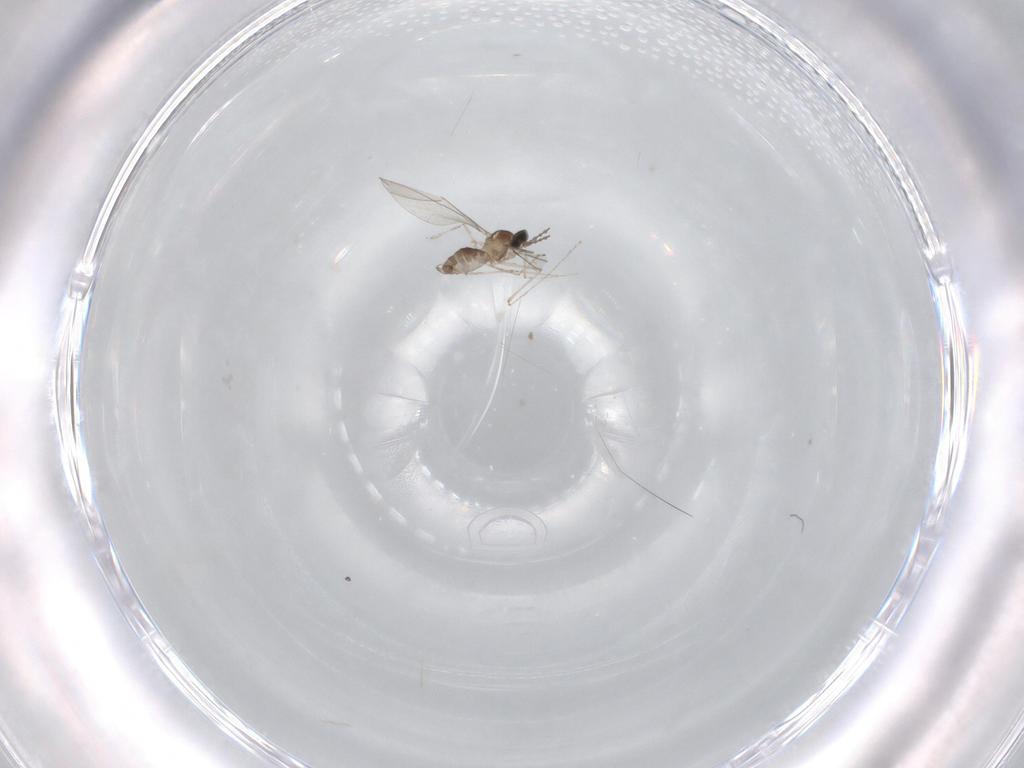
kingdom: Animalia
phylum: Arthropoda
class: Insecta
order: Diptera
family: Cecidomyiidae
